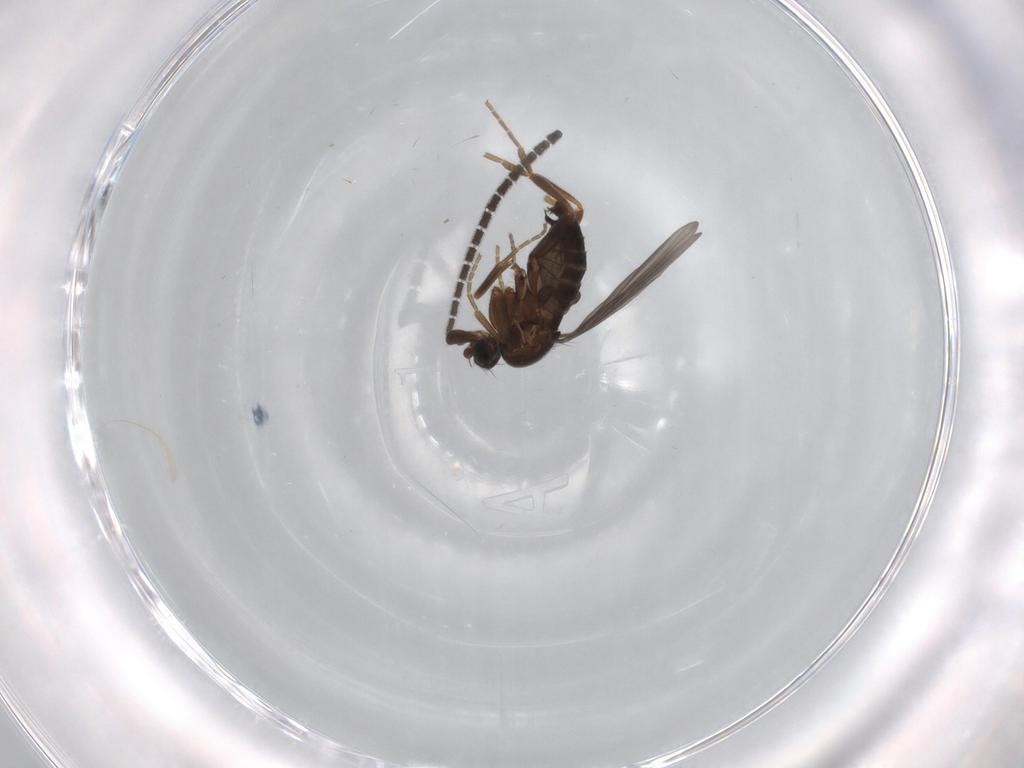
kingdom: Animalia
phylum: Arthropoda
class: Insecta
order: Diptera
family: Phoridae
